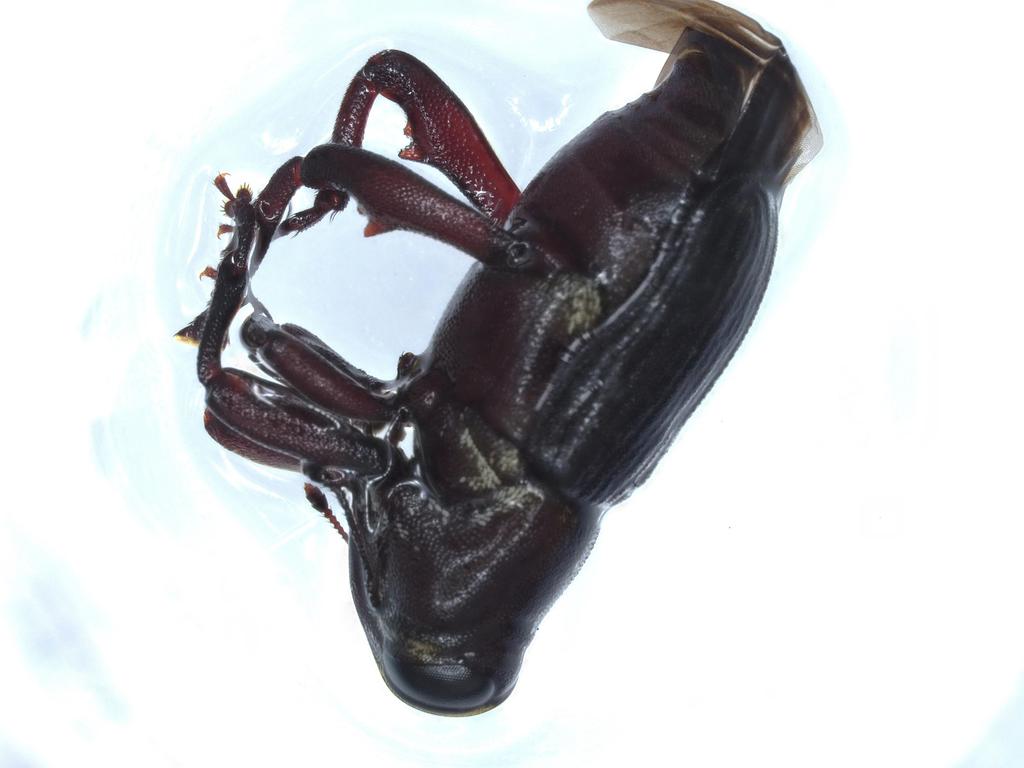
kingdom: Animalia
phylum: Arthropoda
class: Insecta
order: Coleoptera
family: Curculionidae
